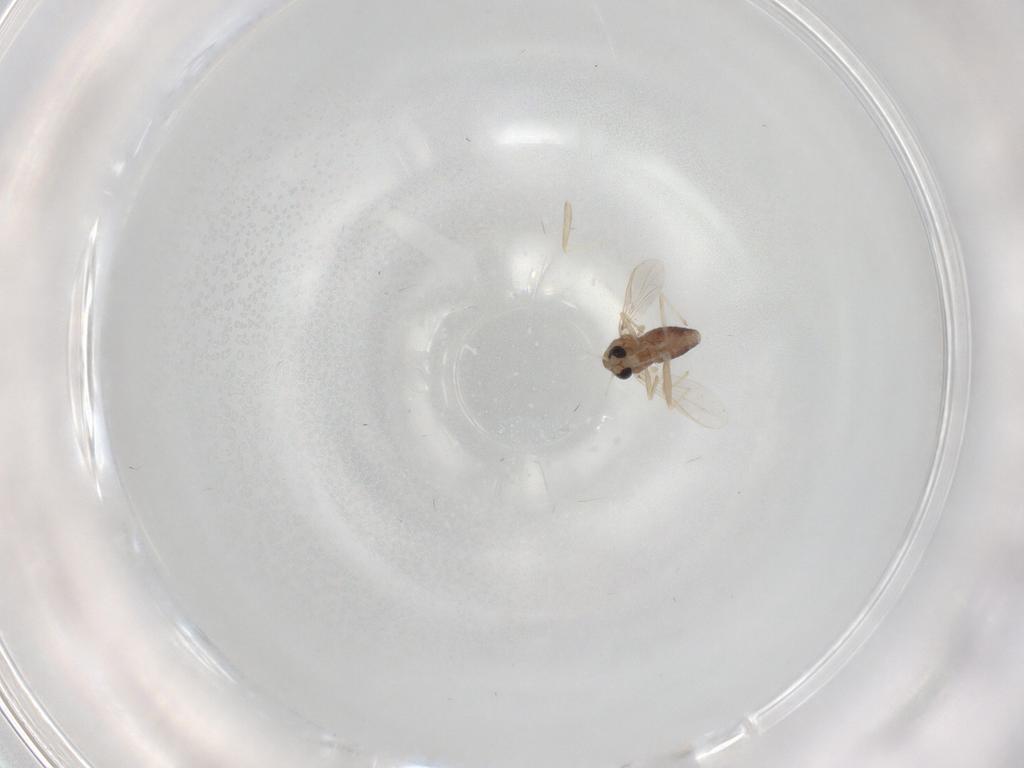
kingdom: Animalia
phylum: Arthropoda
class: Insecta
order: Diptera
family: Chironomidae
